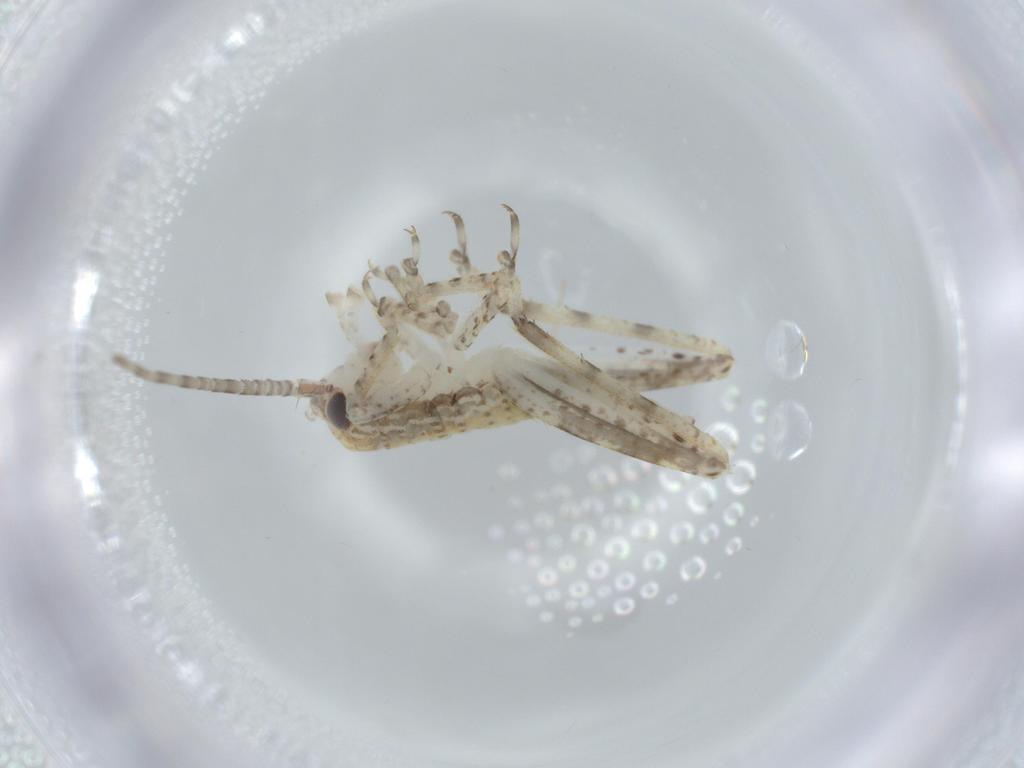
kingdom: Animalia
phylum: Arthropoda
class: Insecta
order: Orthoptera
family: Gryllidae
